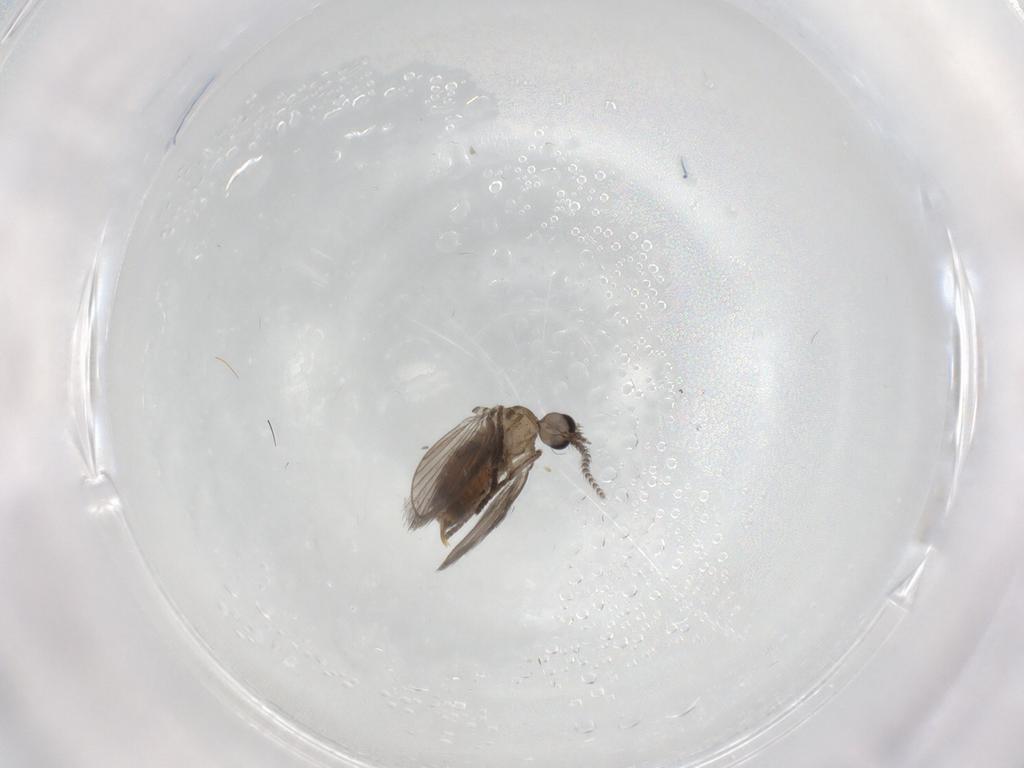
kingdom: Animalia
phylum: Arthropoda
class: Insecta
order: Diptera
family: Psychodidae
